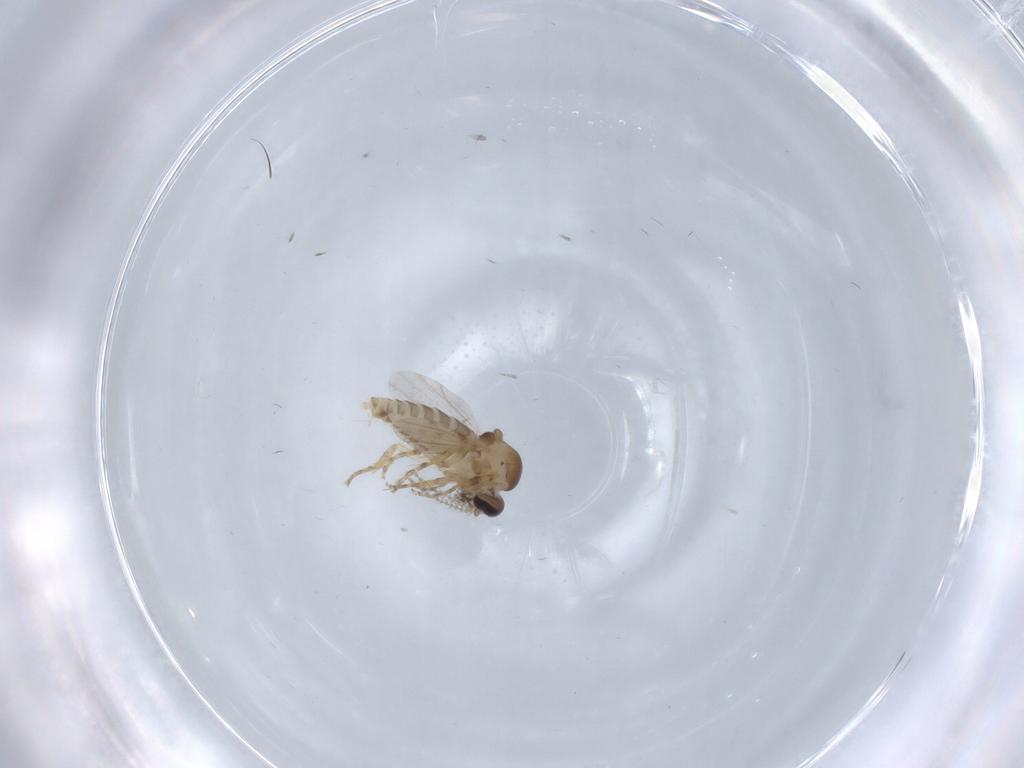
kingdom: Animalia
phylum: Arthropoda
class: Insecta
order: Diptera
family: Ceratopogonidae
